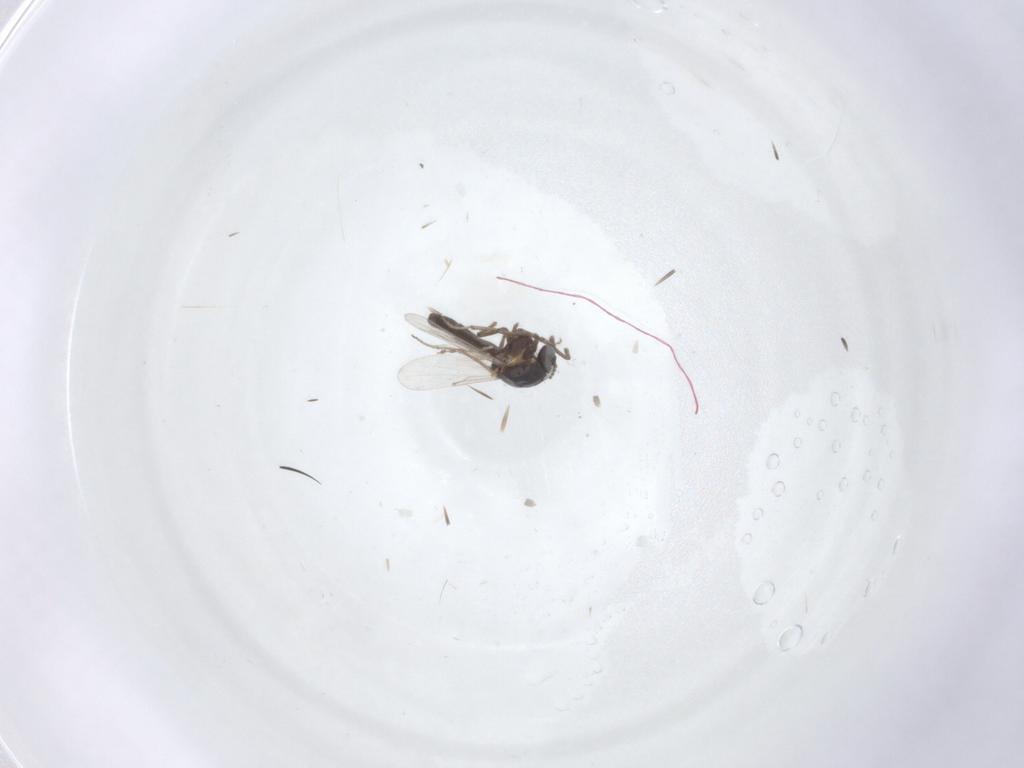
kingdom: Animalia
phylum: Arthropoda
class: Insecta
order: Diptera
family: Ceratopogonidae
